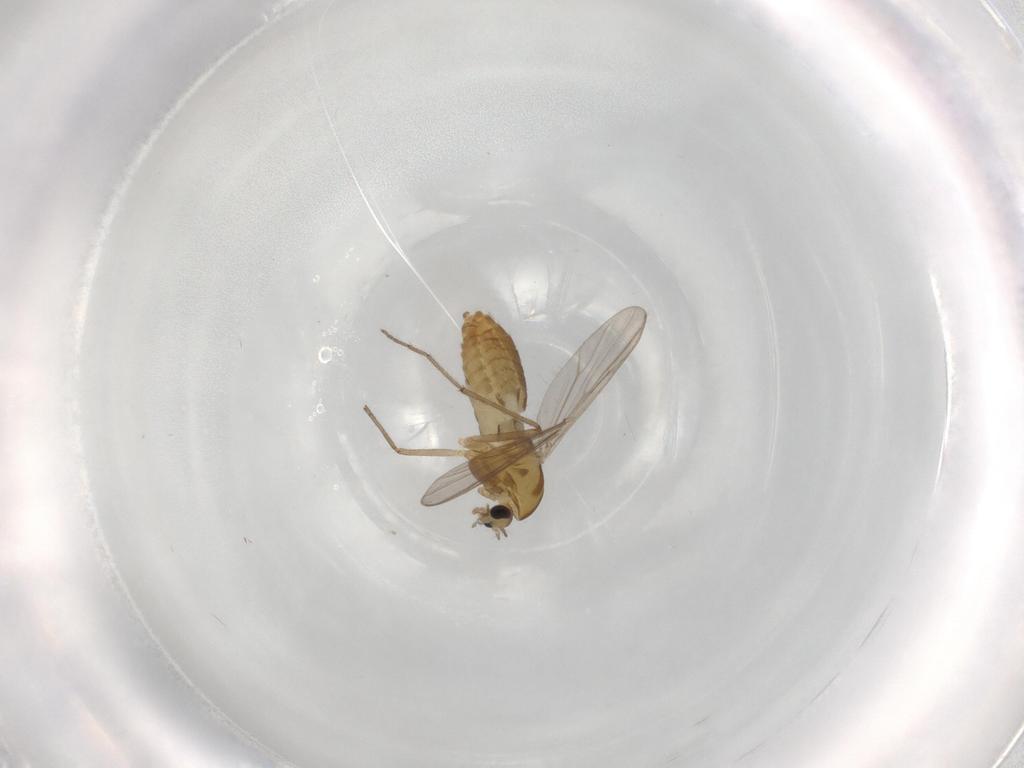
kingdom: Animalia
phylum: Arthropoda
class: Insecta
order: Diptera
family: Chironomidae
